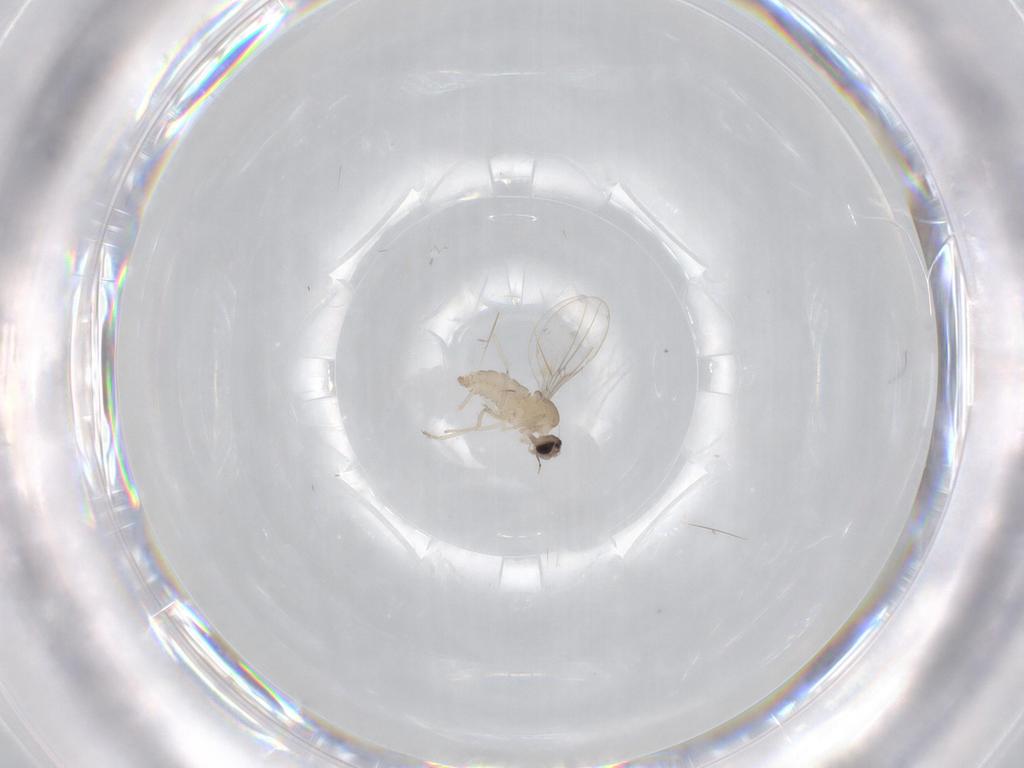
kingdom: Animalia
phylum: Arthropoda
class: Insecta
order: Diptera
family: Cecidomyiidae
